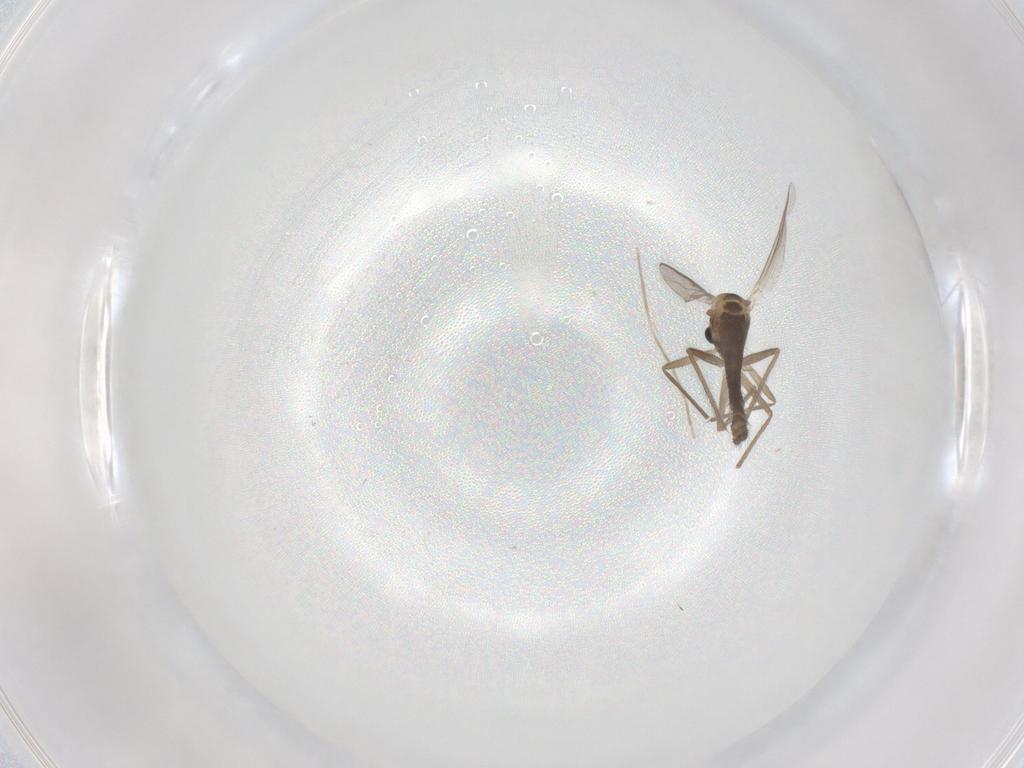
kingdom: Animalia
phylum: Arthropoda
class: Insecta
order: Diptera
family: Chironomidae
